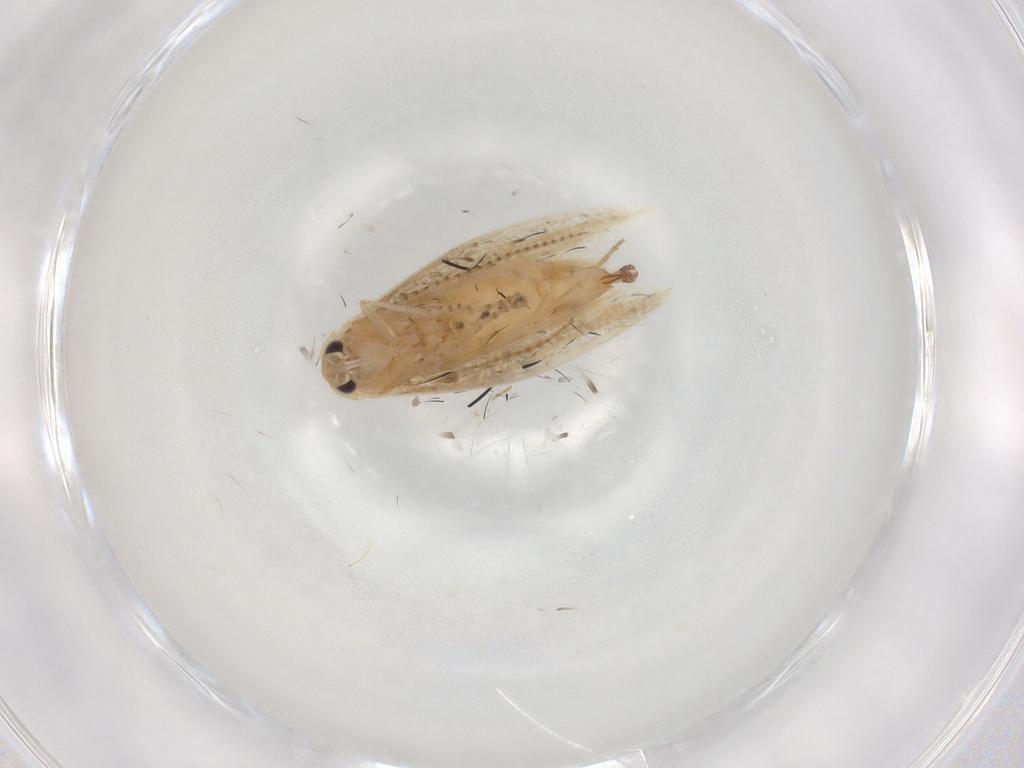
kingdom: Animalia
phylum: Arthropoda
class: Insecta
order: Lepidoptera
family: Bucculatricidae
